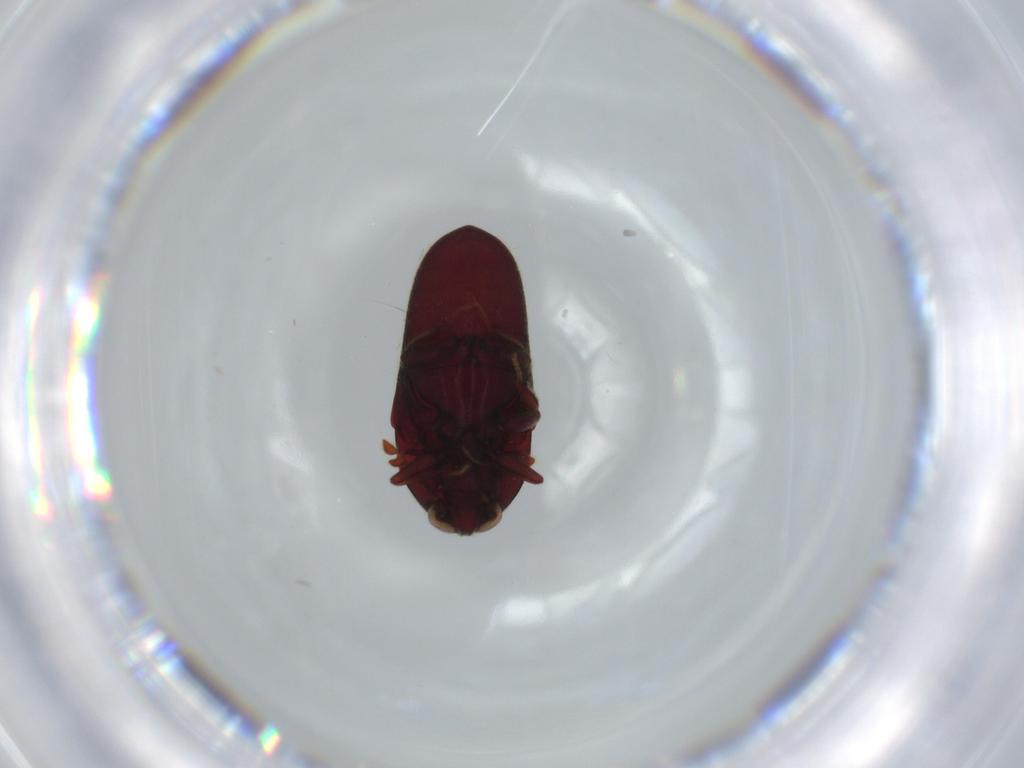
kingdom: Animalia
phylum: Arthropoda
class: Insecta
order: Coleoptera
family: Throscidae
